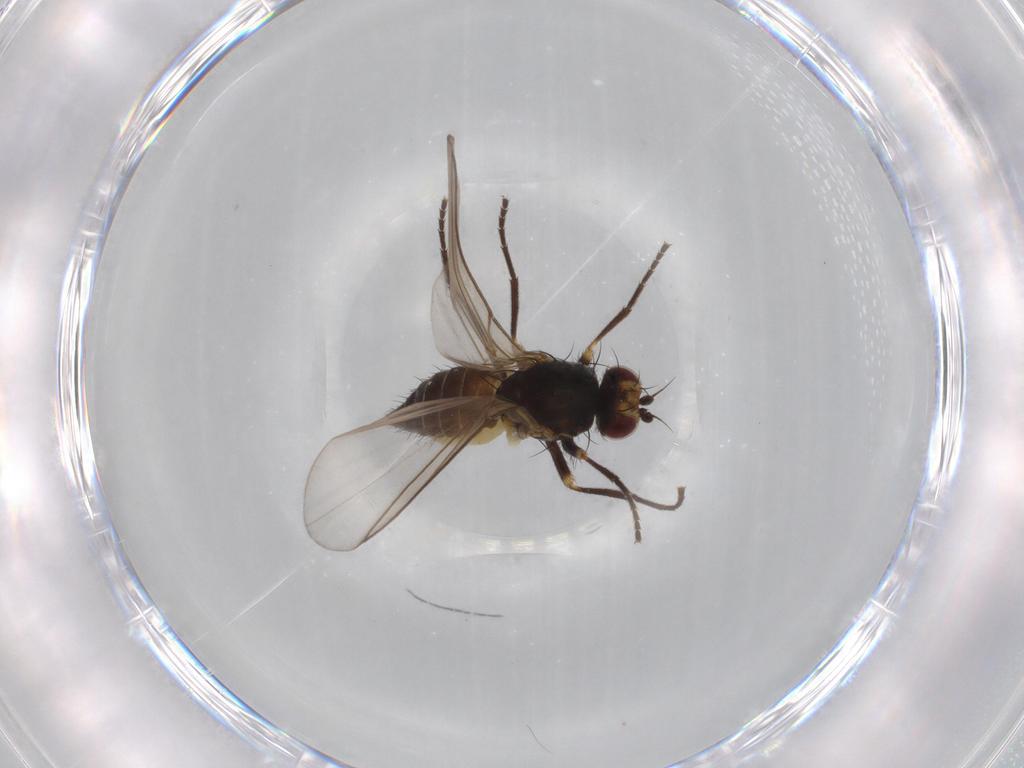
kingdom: Animalia
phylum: Arthropoda
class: Insecta
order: Diptera
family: Agromyzidae
